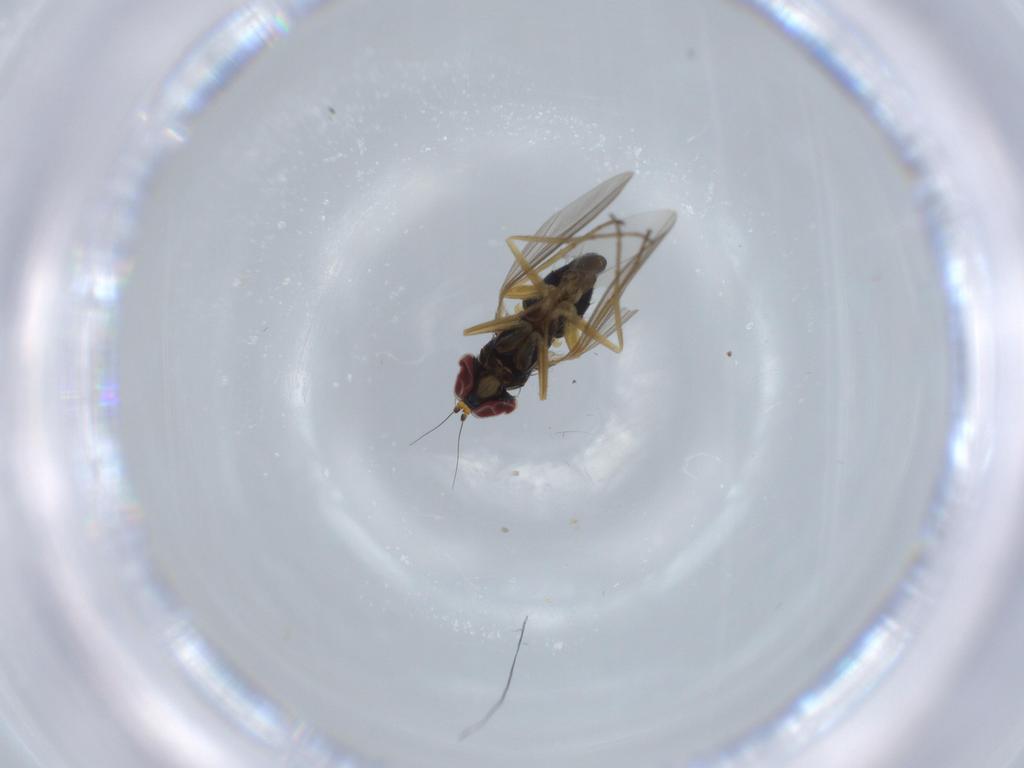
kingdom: Animalia
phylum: Arthropoda
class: Insecta
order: Diptera
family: Dolichopodidae
